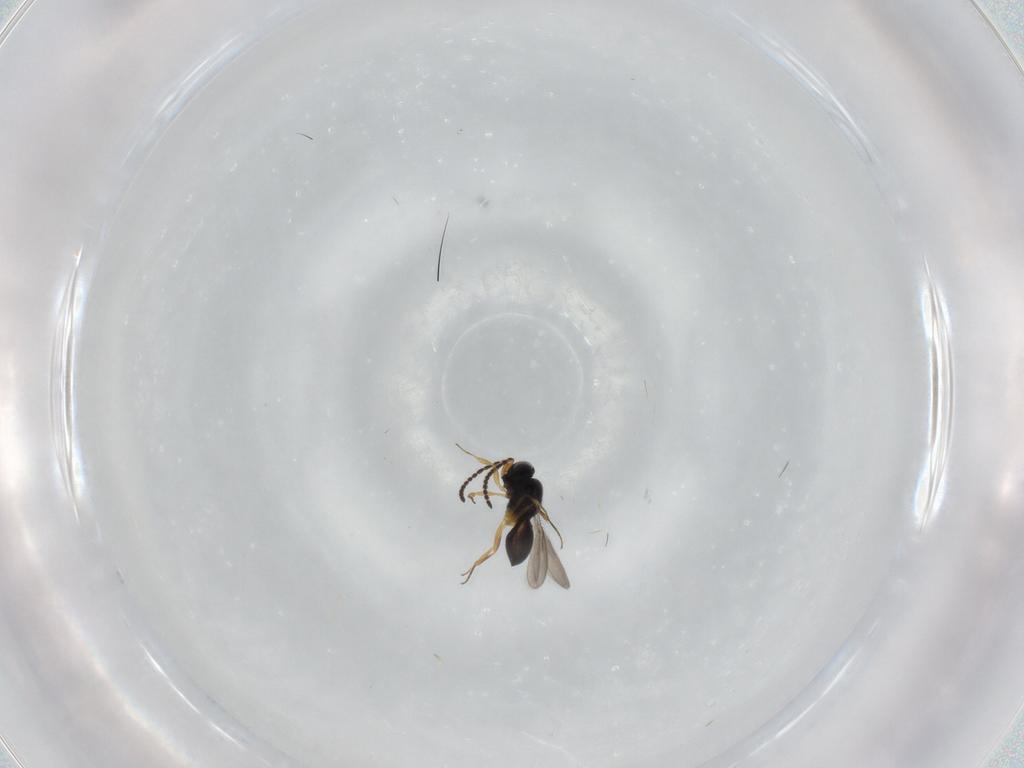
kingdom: Animalia
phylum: Arthropoda
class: Insecta
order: Hymenoptera
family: Scelionidae
